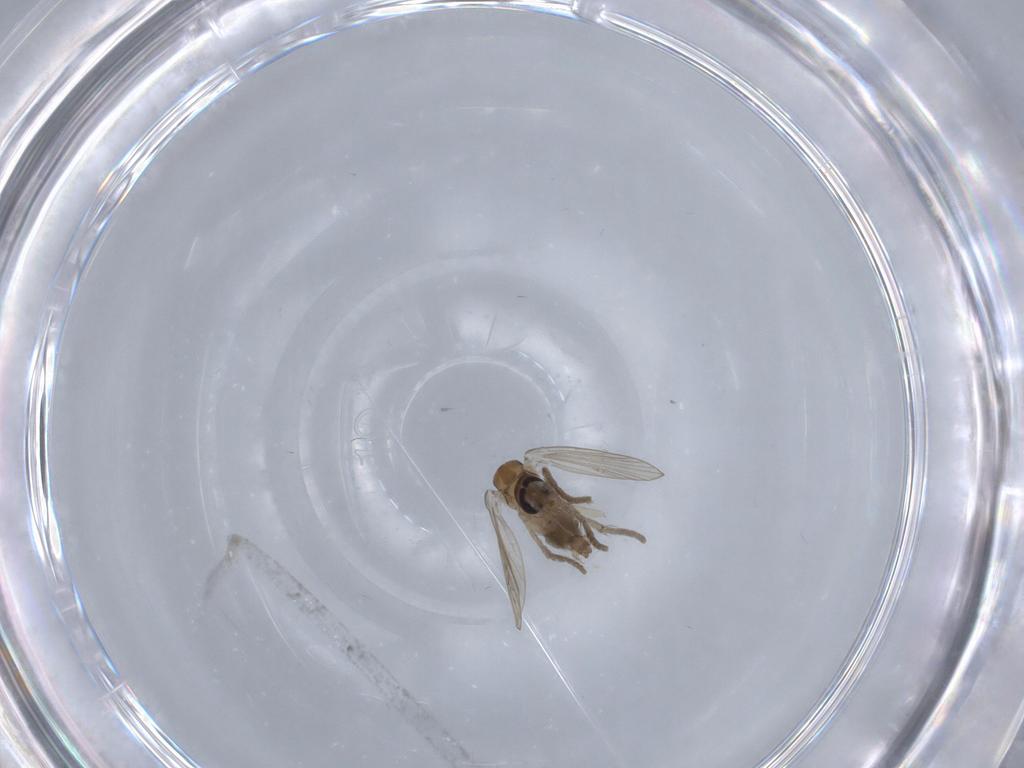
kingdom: Animalia
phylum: Arthropoda
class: Insecta
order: Diptera
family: Psychodidae
